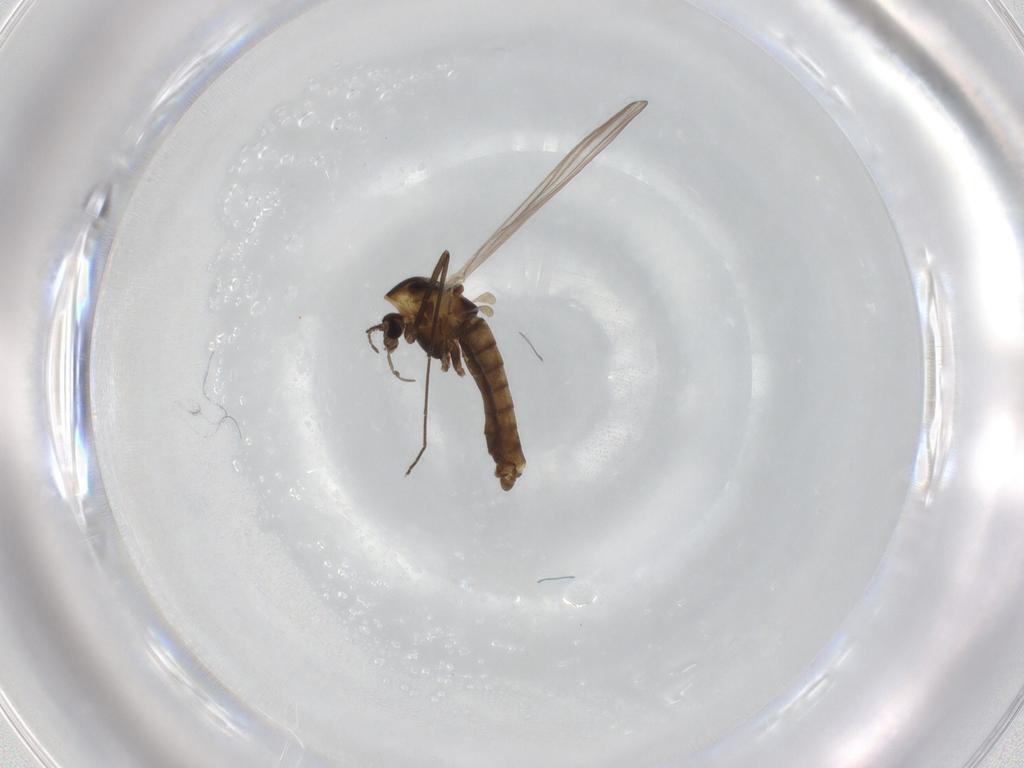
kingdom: Animalia
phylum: Arthropoda
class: Insecta
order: Diptera
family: Chironomidae
